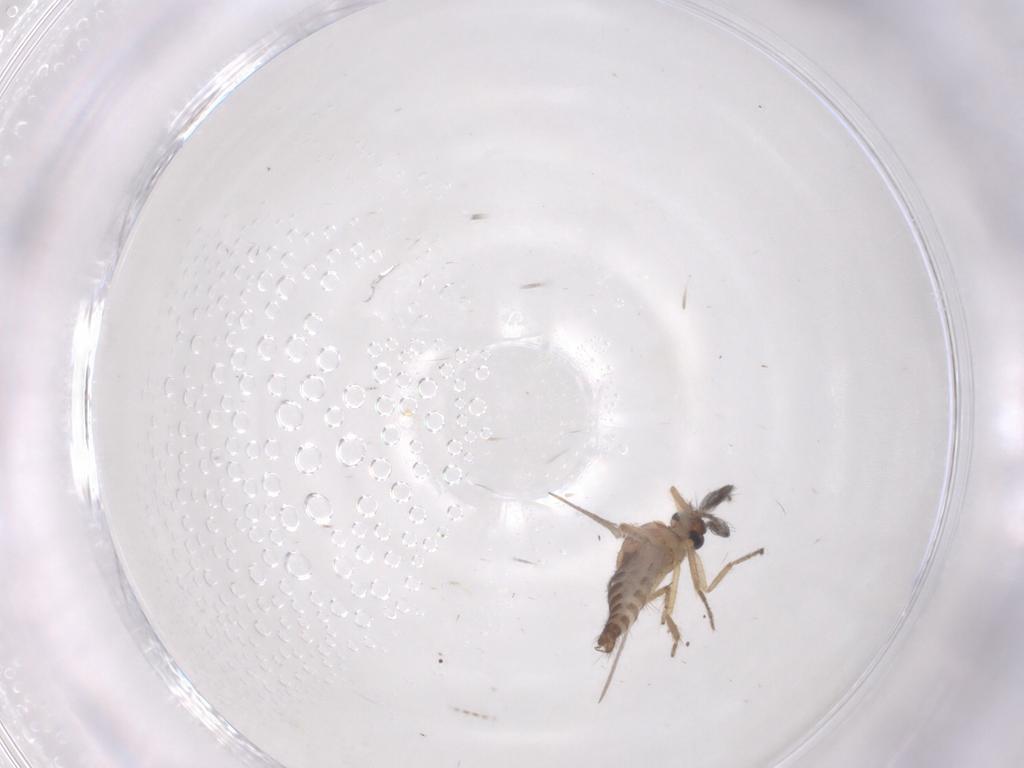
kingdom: Animalia
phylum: Arthropoda
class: Insecta
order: Diptera
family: Ceratopogonidae
